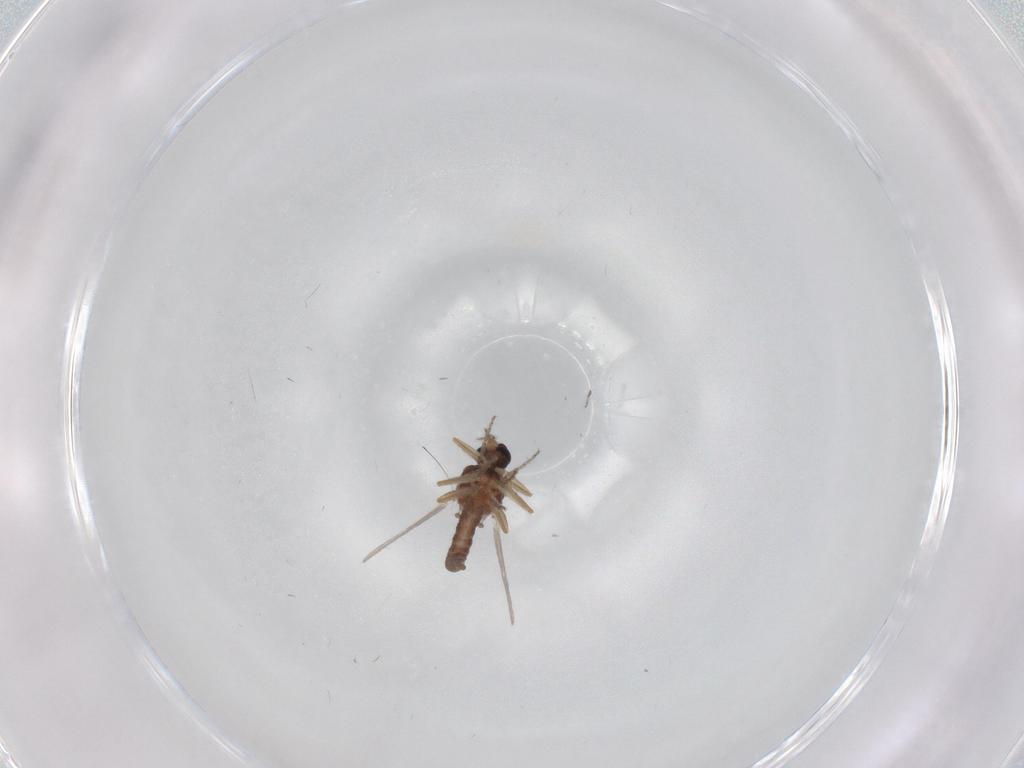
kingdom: Animalia
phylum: Arthropoda
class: Insecta
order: Diptera
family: Ceratopogonidae
